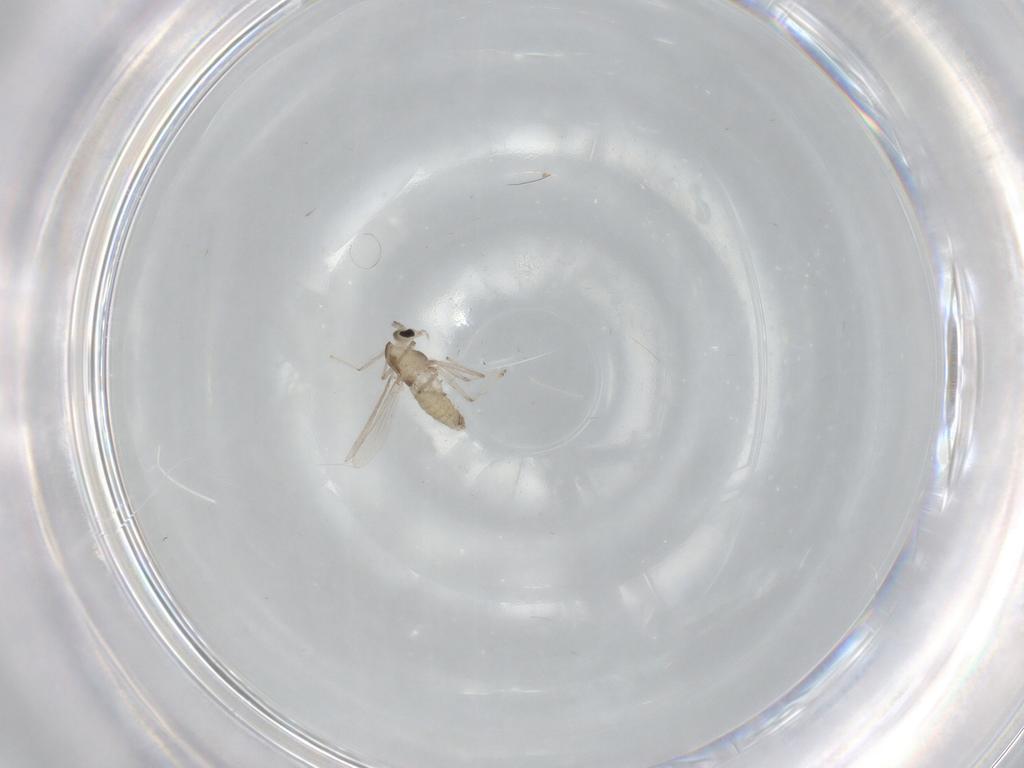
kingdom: Animalia
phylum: Arthropoda
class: Insecta
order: Diptera
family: Chironomidae
